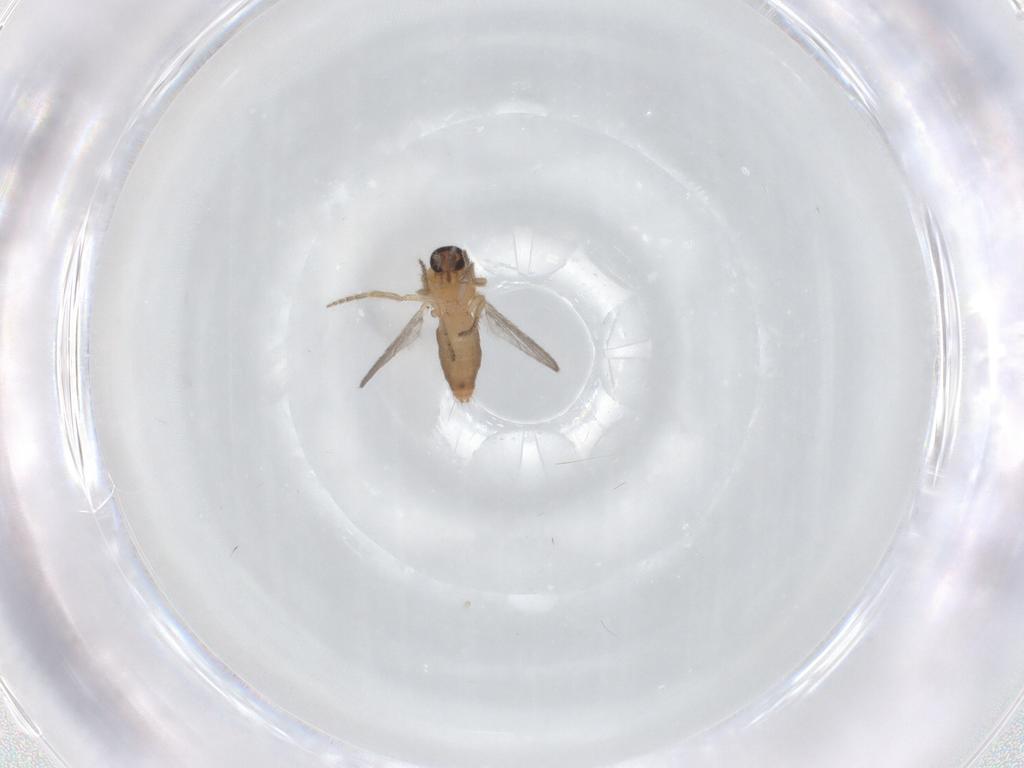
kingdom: Animalia
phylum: Arthropoda
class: Insecta
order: Diptera
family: Ceratopogonidae
